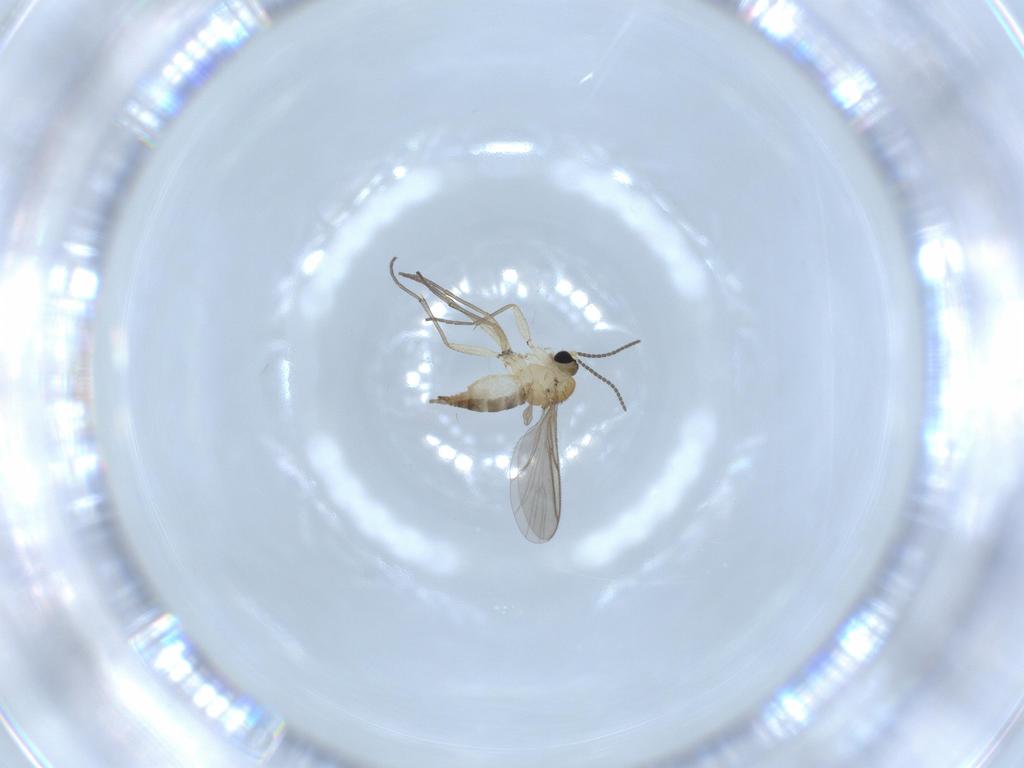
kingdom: Animalia
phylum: Arthropoda
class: Insecta
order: Diptera
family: Sciaridae
